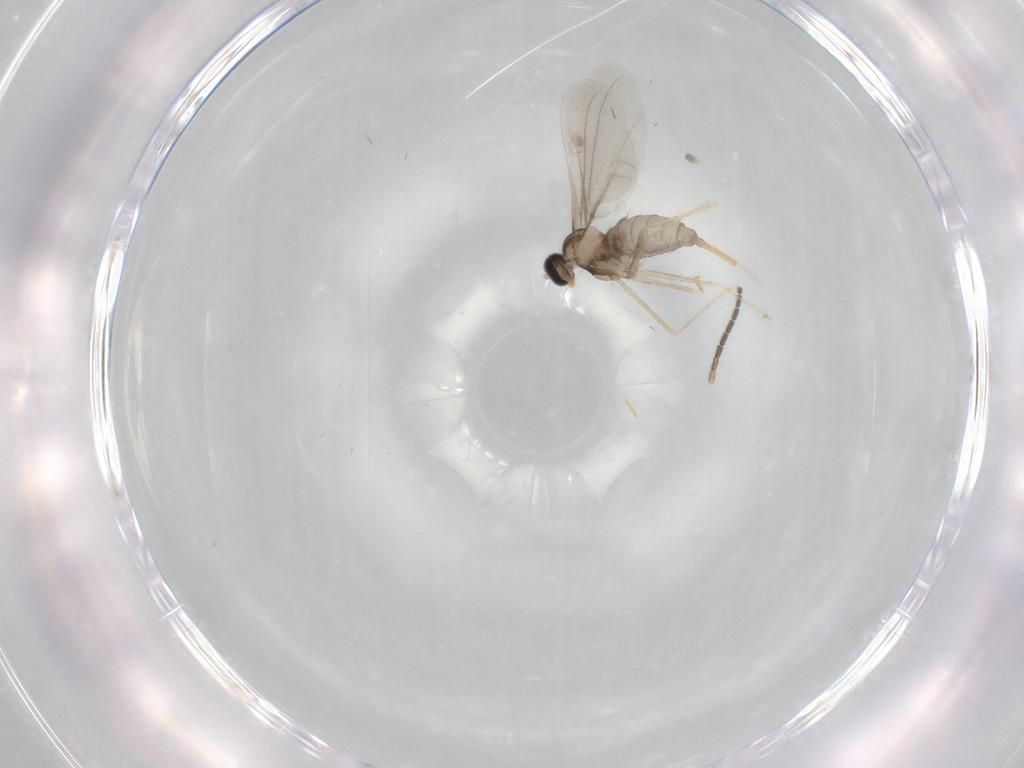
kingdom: Animalia
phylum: Arthropoda
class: Insecta
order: Diptera
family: Sciaridae
